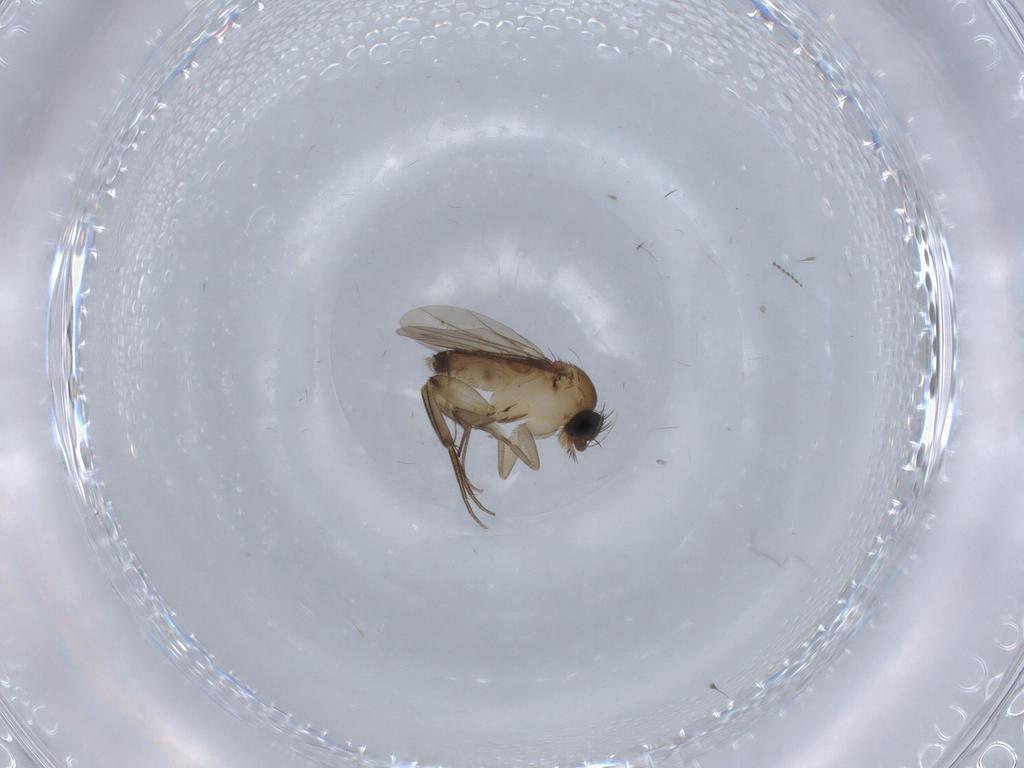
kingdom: Animalia
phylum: Arthropoda
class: Insecta
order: Diptera
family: Phoridae
